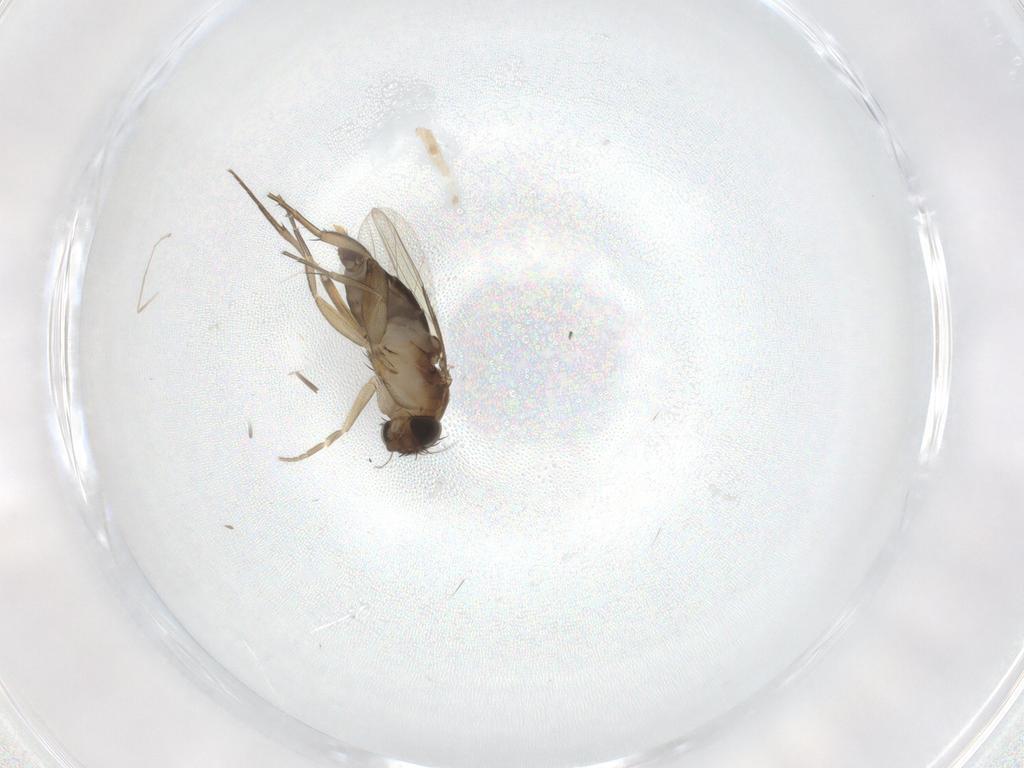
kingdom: Animalia
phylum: Arthropoda
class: Insecta
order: Diptera
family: Phoridae
